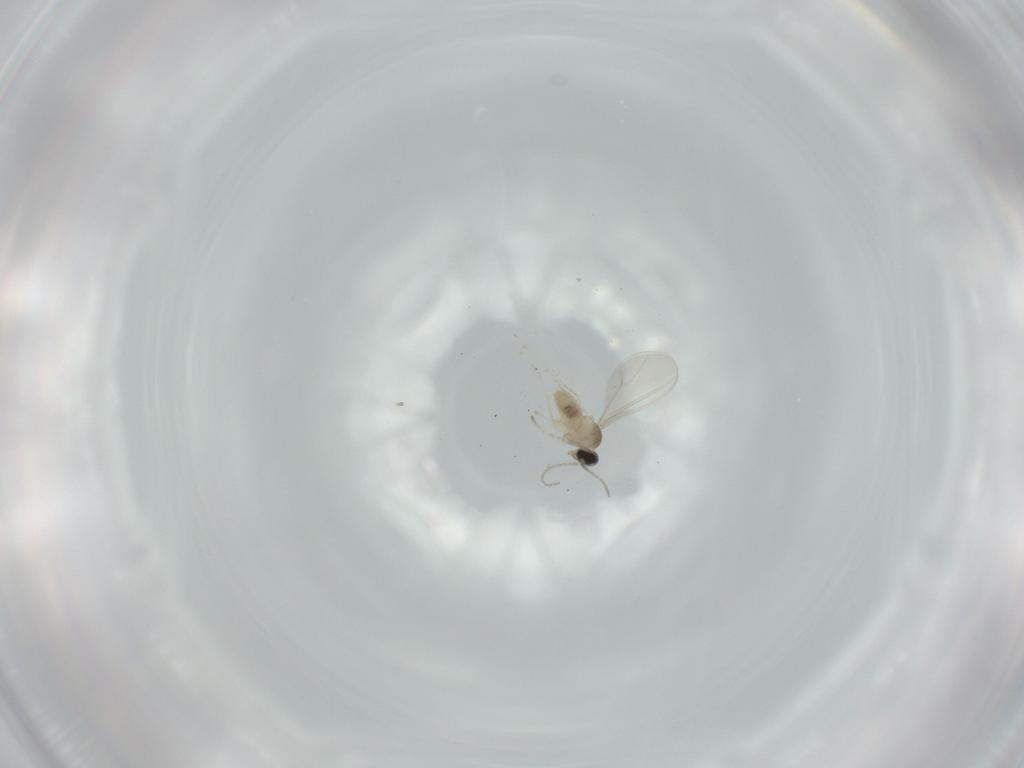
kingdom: Animalia
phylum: Arthropoda
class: Insecta
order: Diptera
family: Cecidomyiidae
